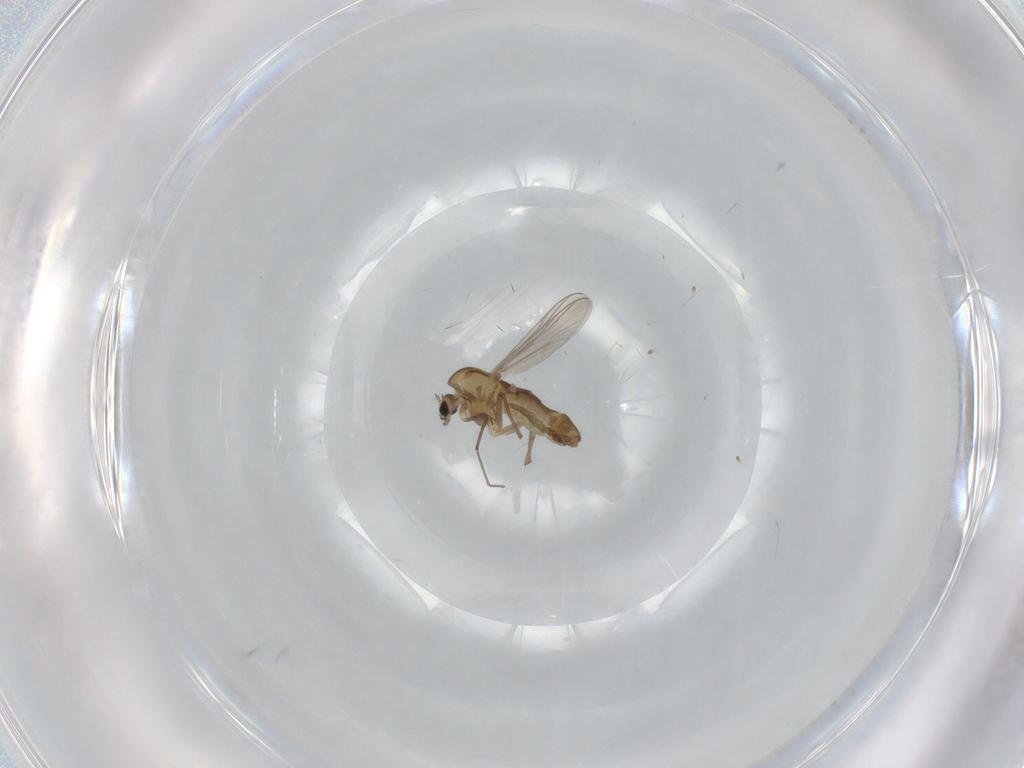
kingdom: Animalia
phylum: Arthropoda
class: Insecta
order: Diptera
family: Chironomidae
